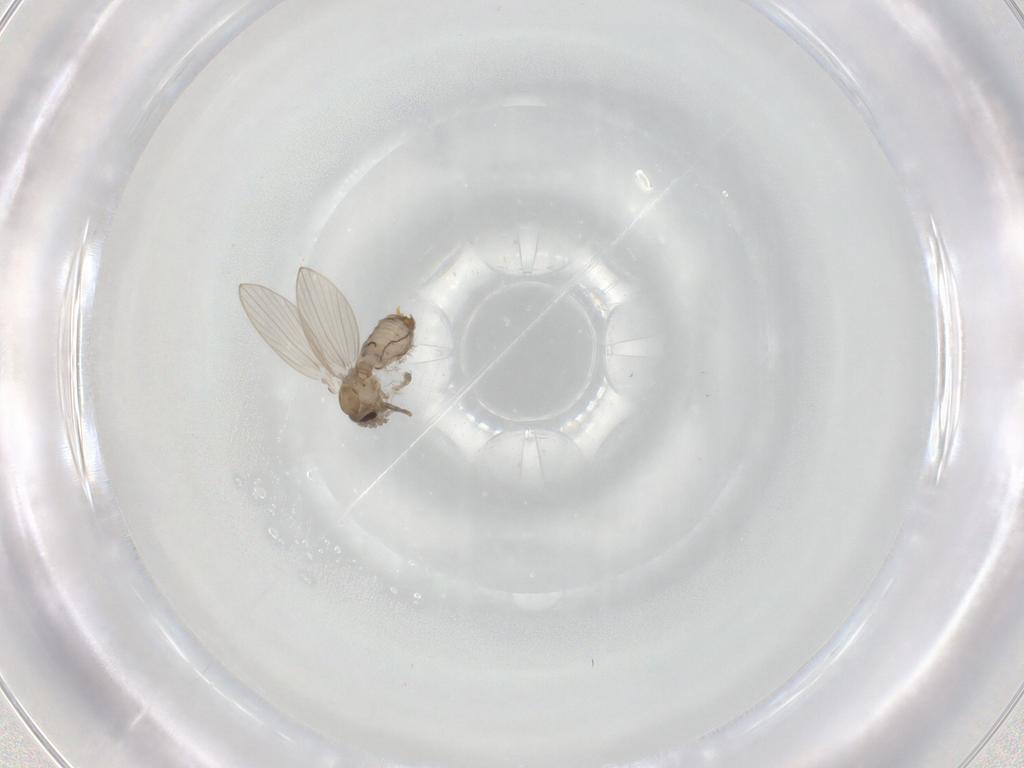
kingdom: Animalia
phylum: Arthropoda
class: Insecta
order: Diptera
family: Psychodidae
